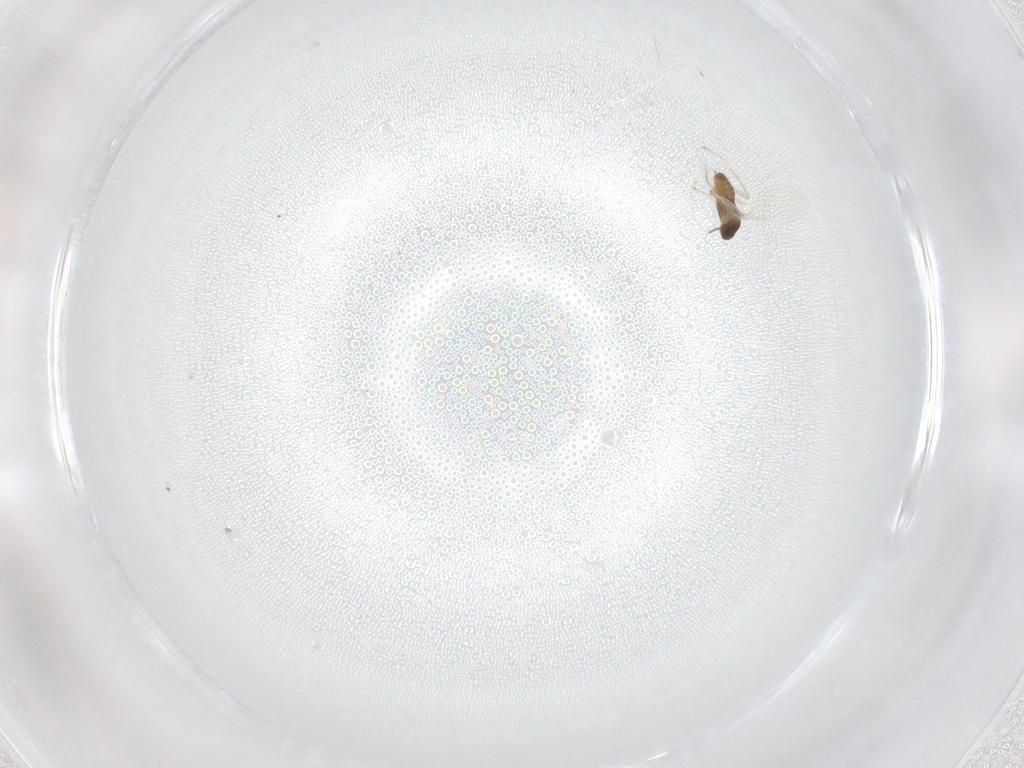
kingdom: Animalia
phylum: Arthropoda
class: Insecta
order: Diptera
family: Cecidomyiidae
